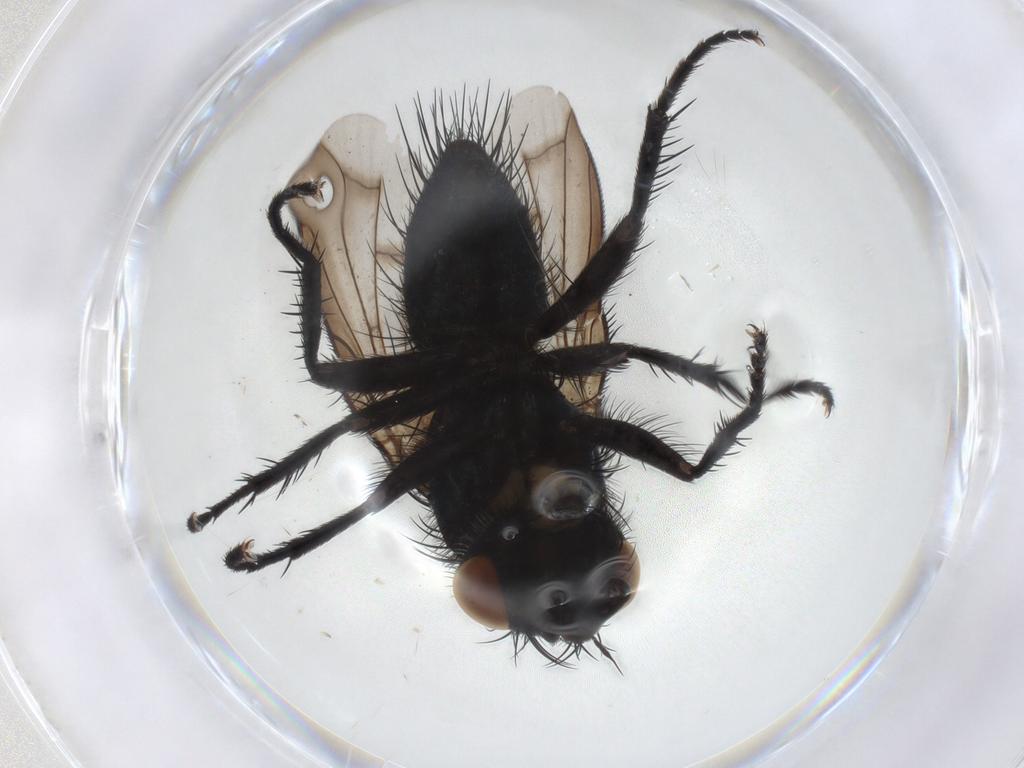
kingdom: Animalia
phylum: Arthropoda
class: Insecta
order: Diptera
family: Tachinidae
